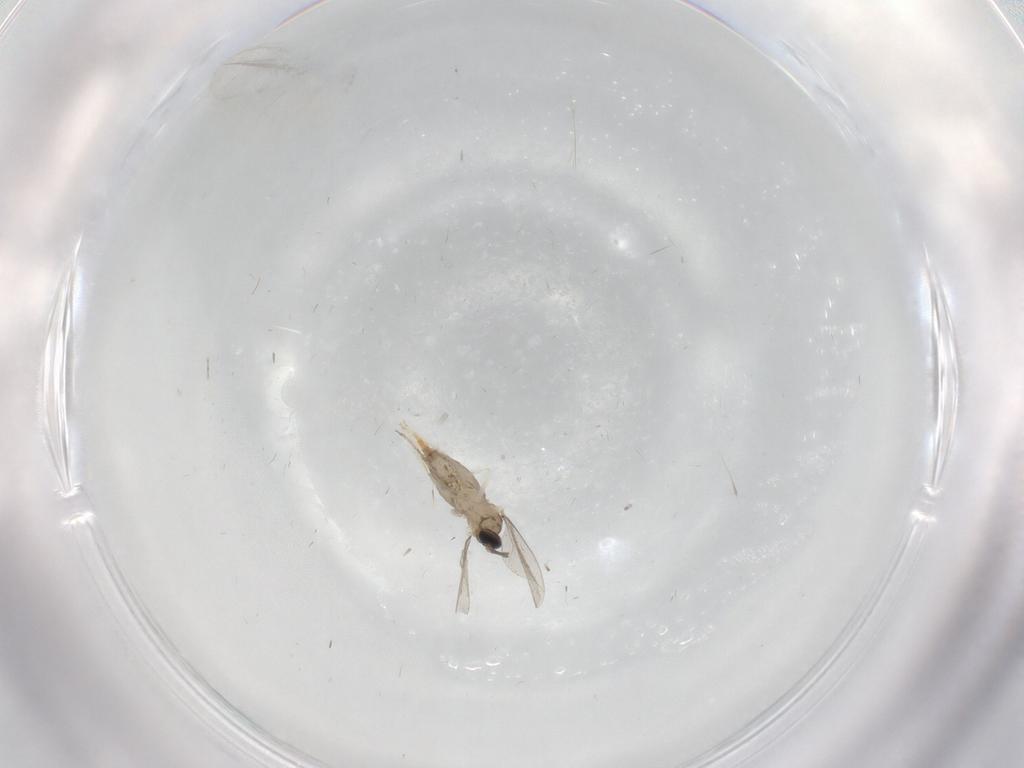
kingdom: Animalia
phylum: Arthropoda
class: Insecta
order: Diptera
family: Cecidomyiidae
